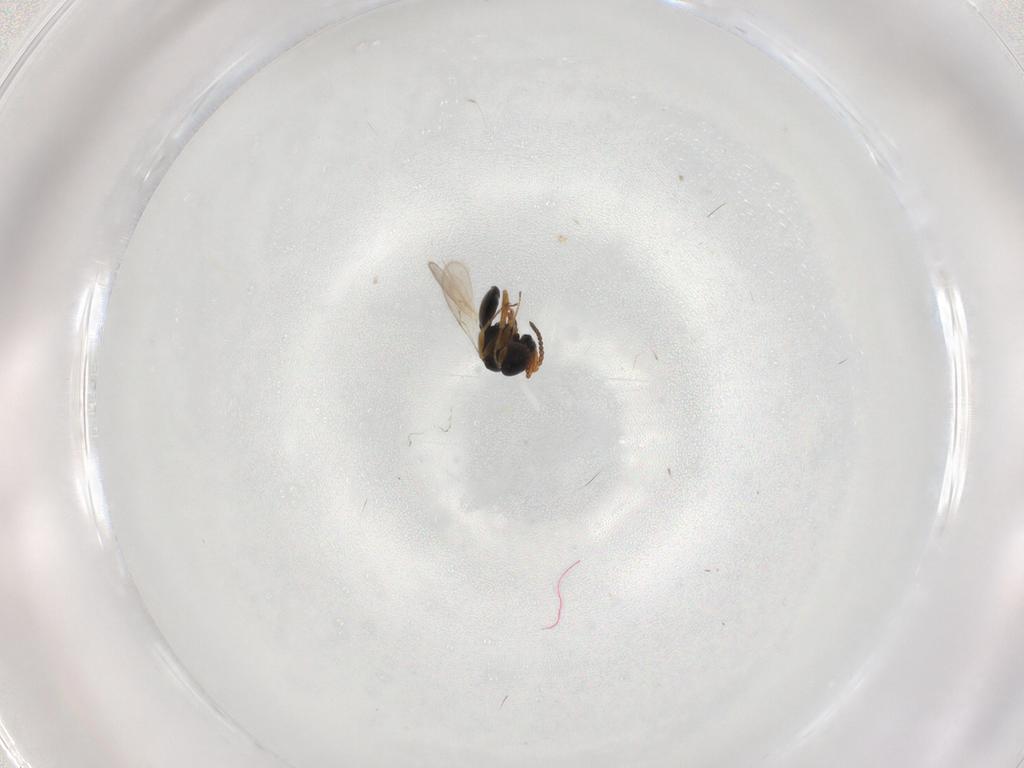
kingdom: Animalia
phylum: Arthropoda
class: Insecta
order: Hymenoptera
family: Scelionidae
